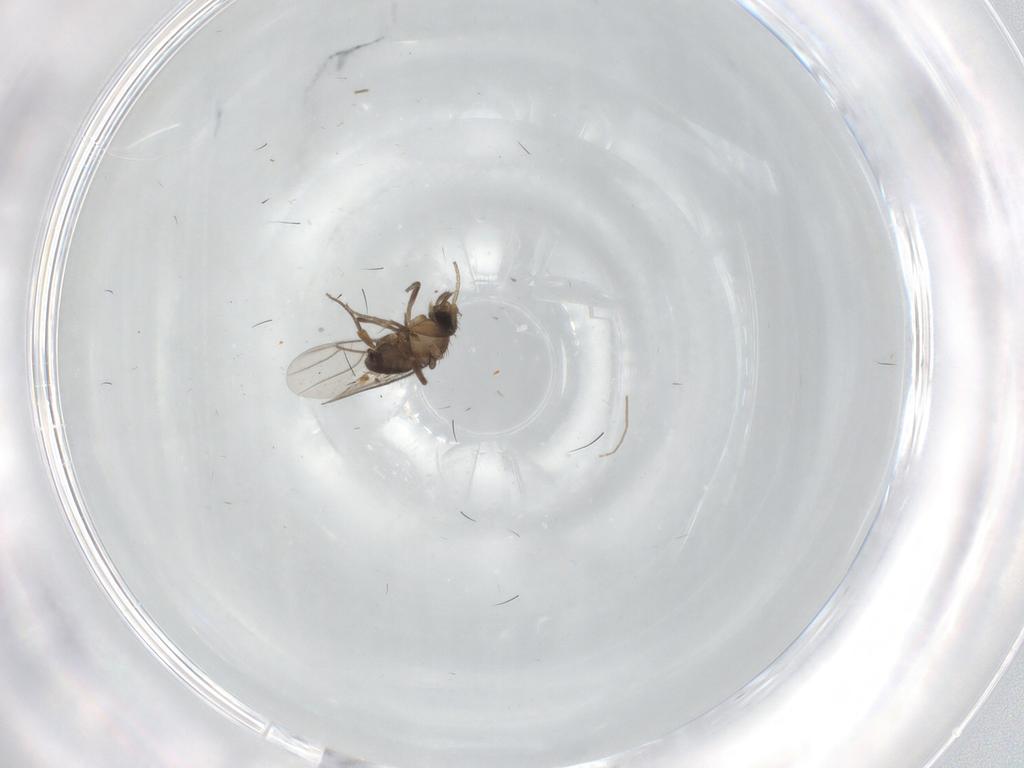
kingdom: Animalia
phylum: Arthropoda
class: Insecta
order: Diptera
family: Phoridae
